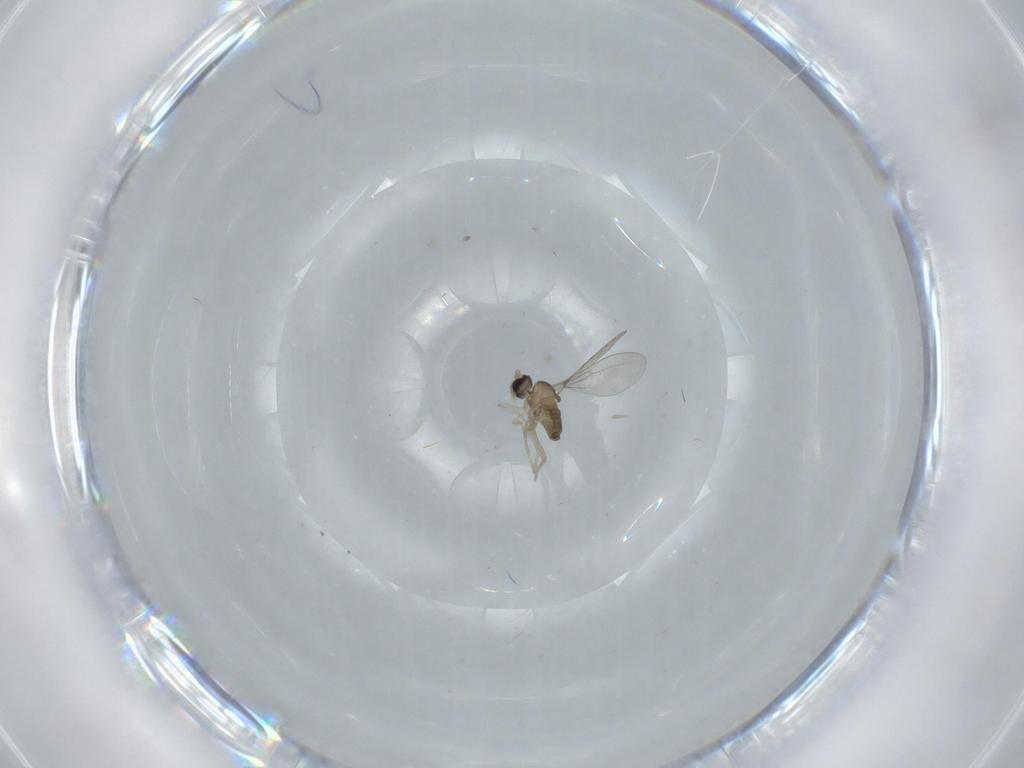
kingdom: Animalia
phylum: Arthropoda
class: Insecta
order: Diptera
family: Cecidomyiidae
